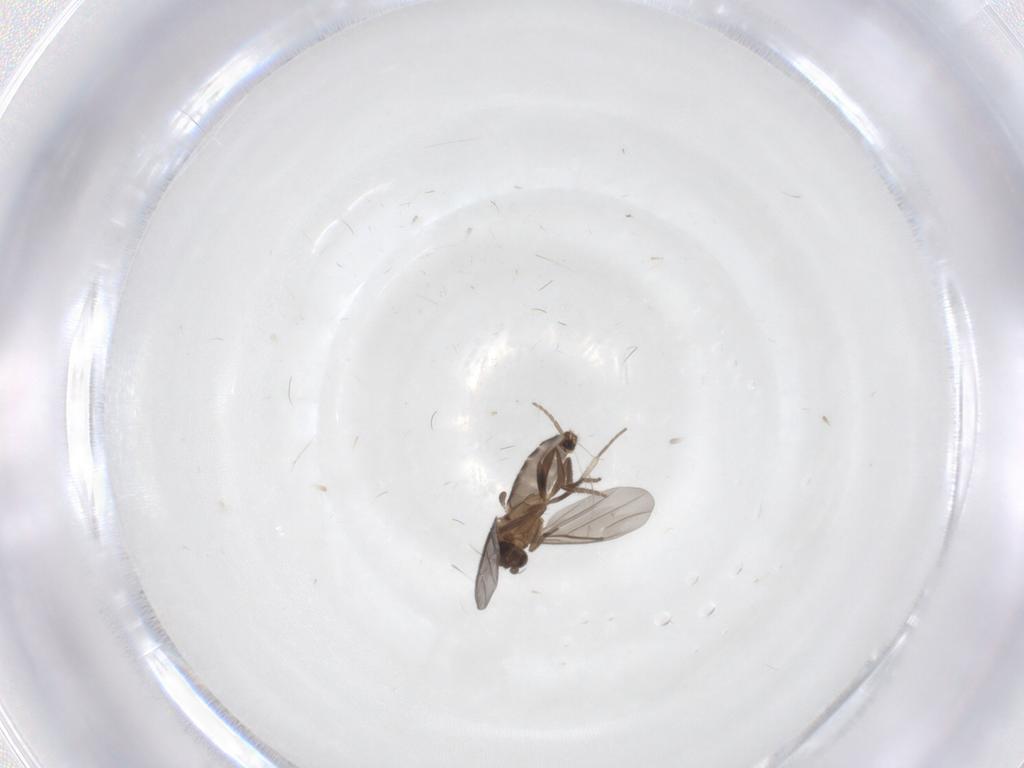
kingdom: Animalia
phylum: Arthropoda
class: Insecta
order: Diptera
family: Phoridae
